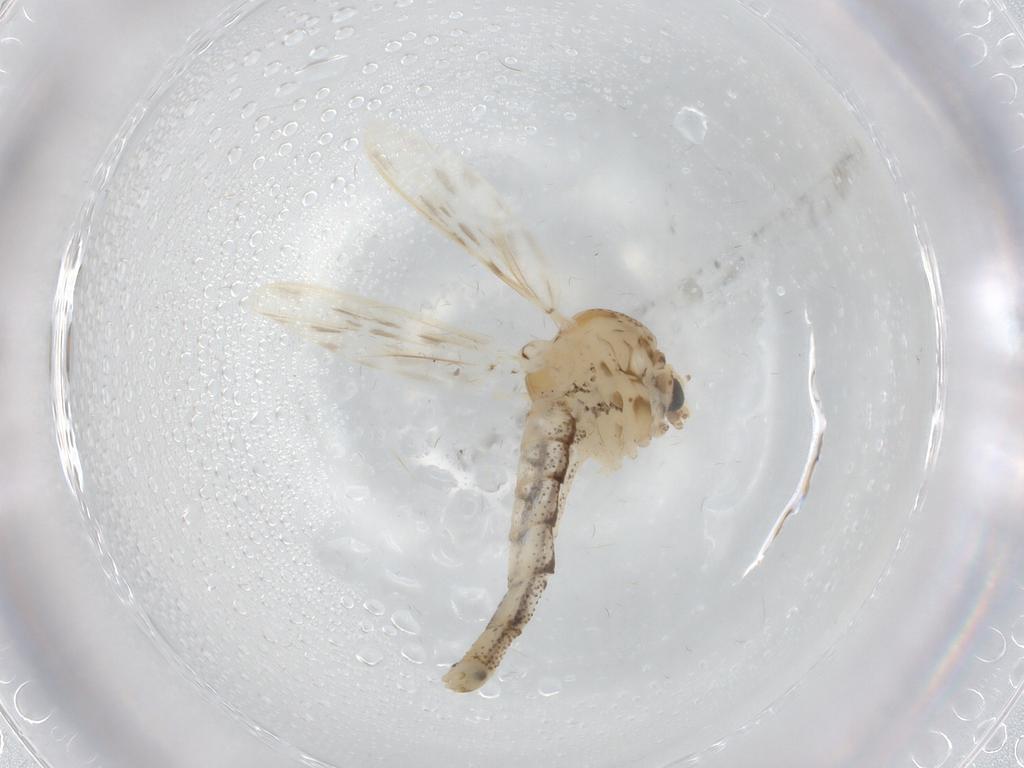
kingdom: Animalia
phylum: Arthropoda
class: Insecta
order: Diptera
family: Chaoboridae
